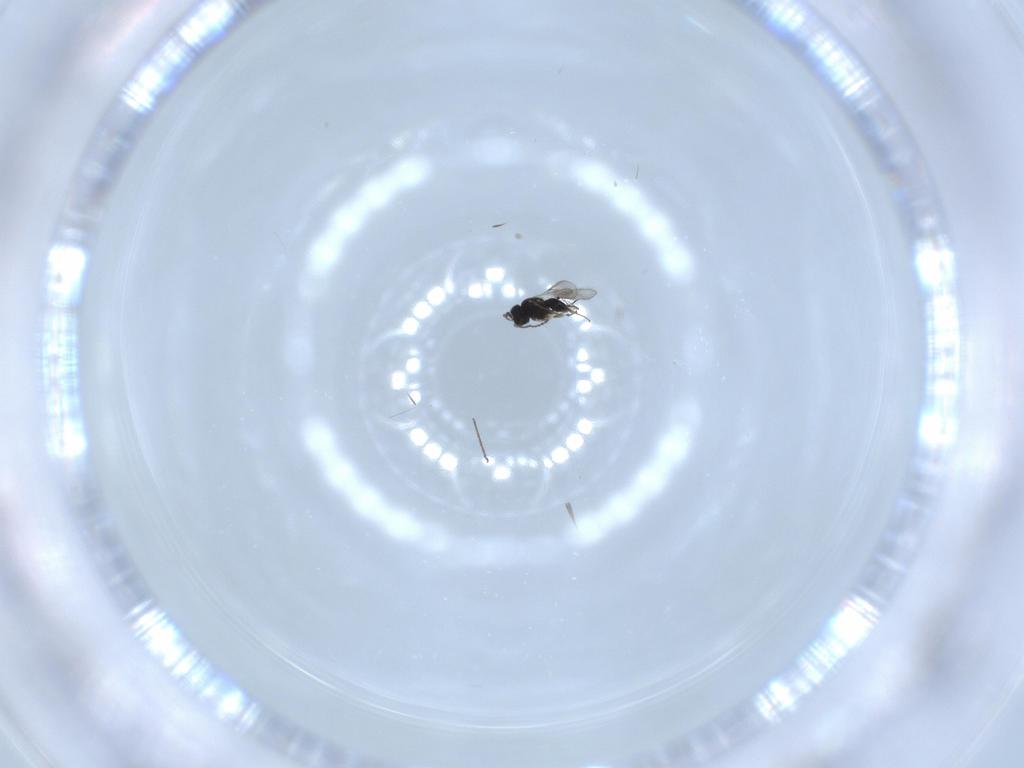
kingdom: Animalia
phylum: Arthropoda
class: Insecta
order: Hymenoptera
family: Scelionidae
